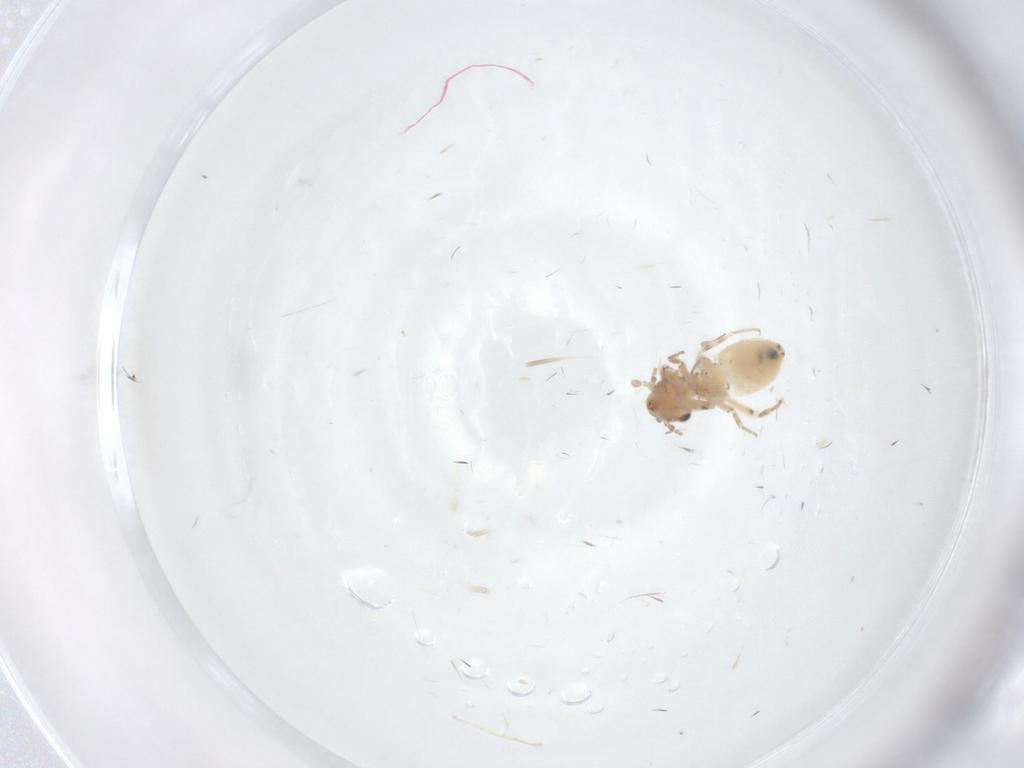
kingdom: Animalia
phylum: Arthropoda
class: Insecta
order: Psocodea
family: Lepidopsocidae
